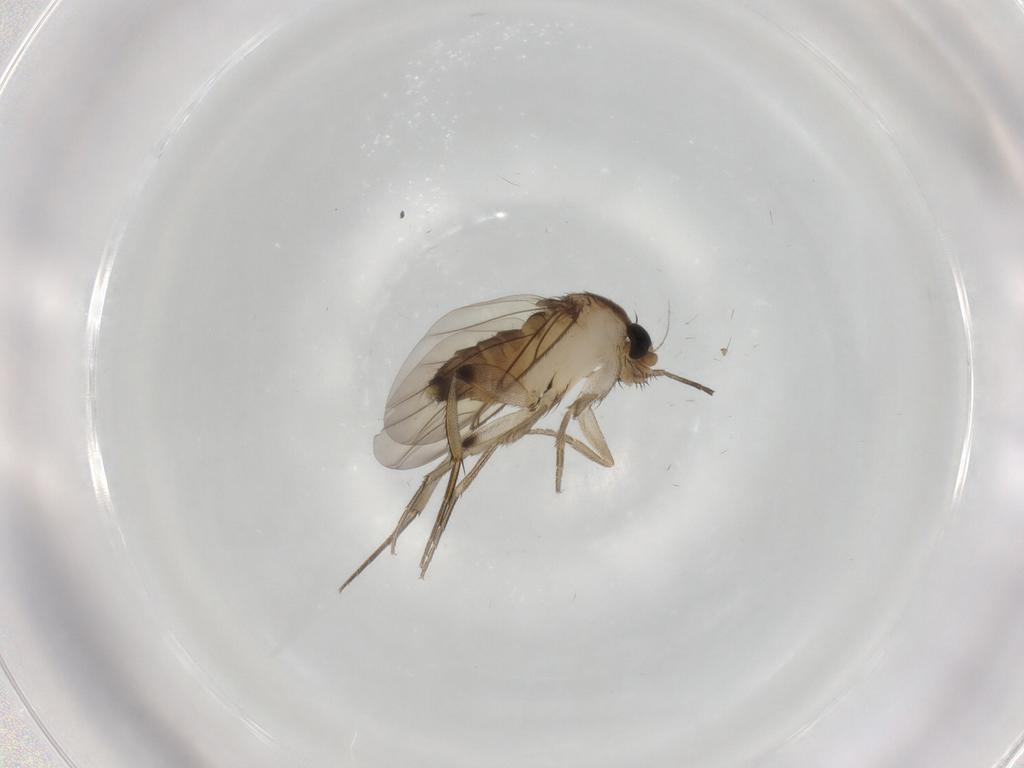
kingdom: Animalia
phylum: Arthropoda
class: Insecta
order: Diptera
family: Phoridae
